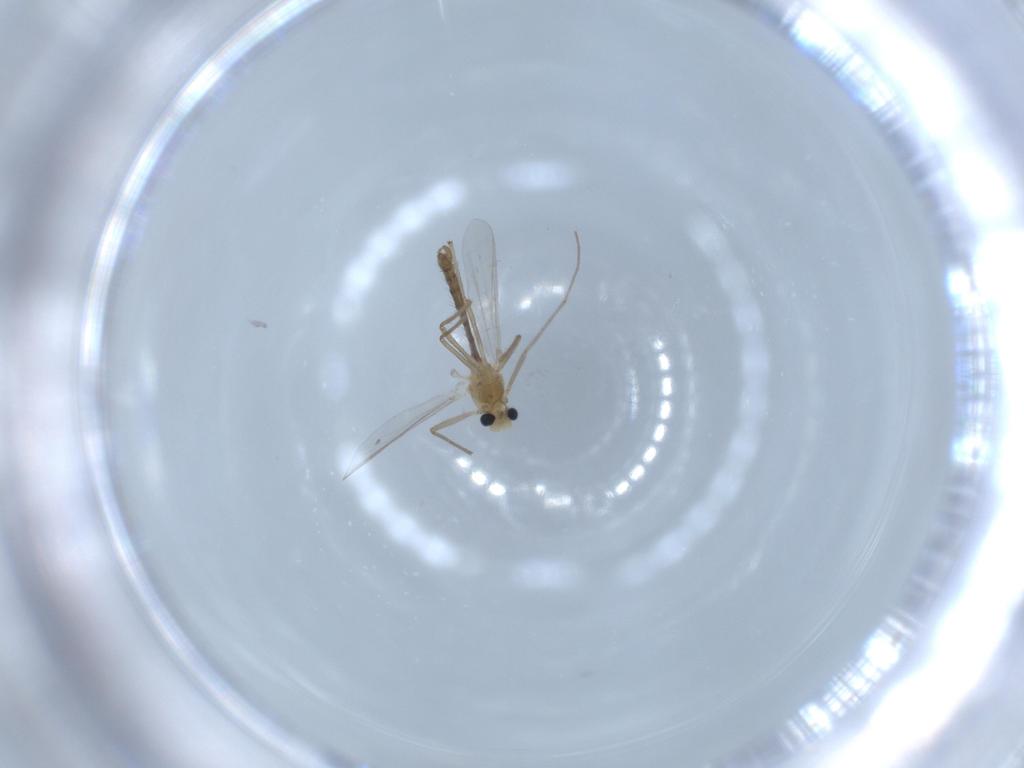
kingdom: Animalia
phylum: Arthropoda
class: Insecta
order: Diptera
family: Chironomidae
